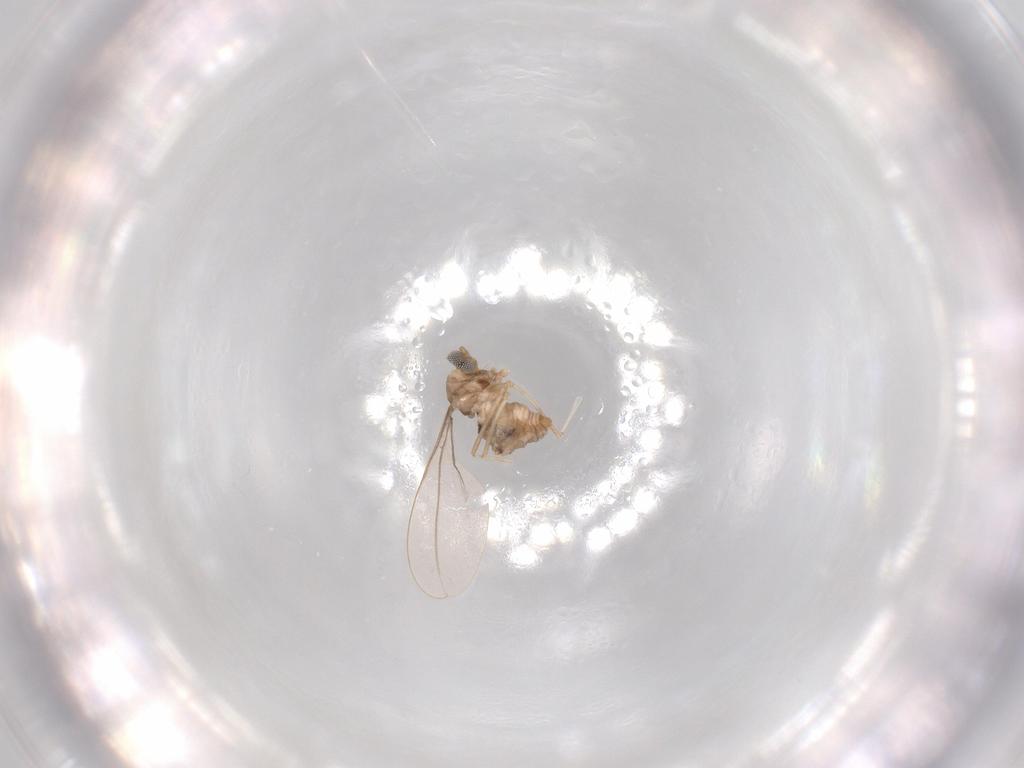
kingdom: Animalia
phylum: Arthropoda
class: Insecta
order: Diptera
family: Cecidomyiidae
